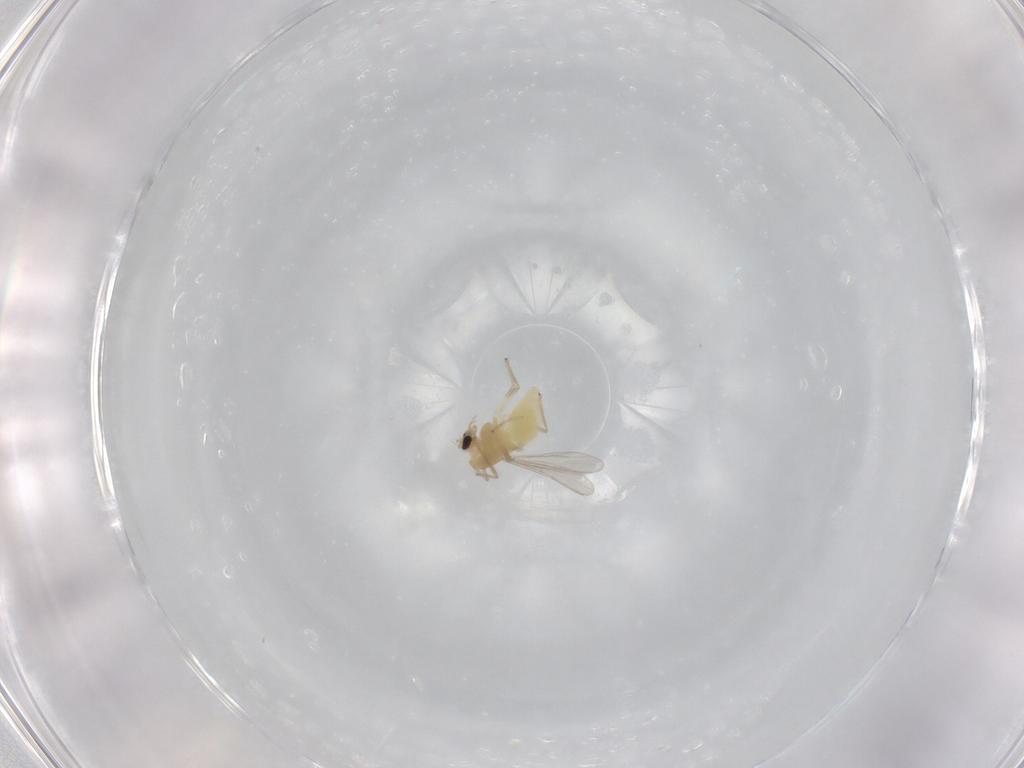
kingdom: Animalia
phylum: Arthropoda
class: Insecta
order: Diptera
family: Chironomidae
